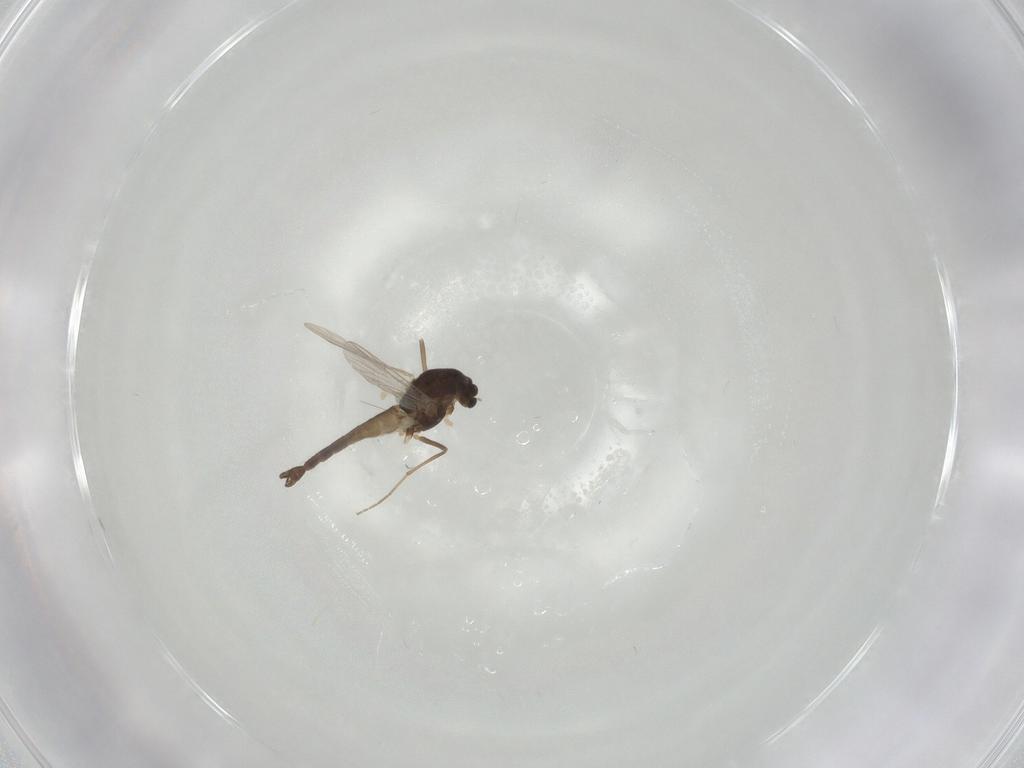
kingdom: Animalia
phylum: Arthropoda
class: Insecta
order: Diptera
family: Chironomidae
